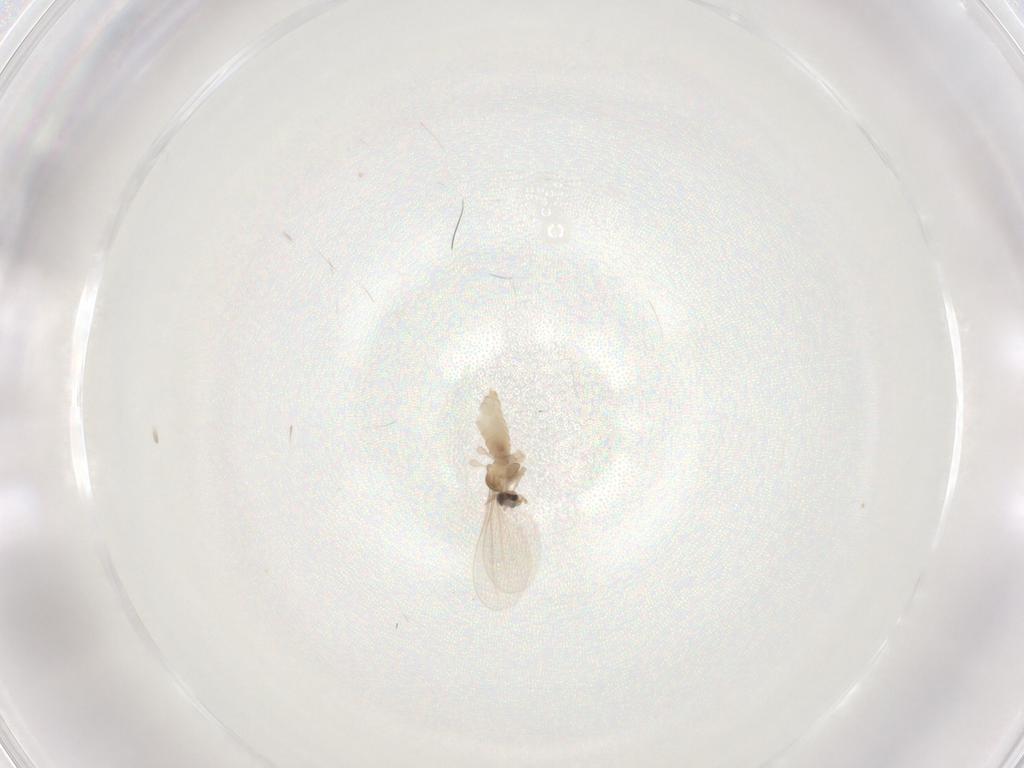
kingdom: Animalia
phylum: Arthropoda
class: Insecta
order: Diptera
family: Chironomidae
